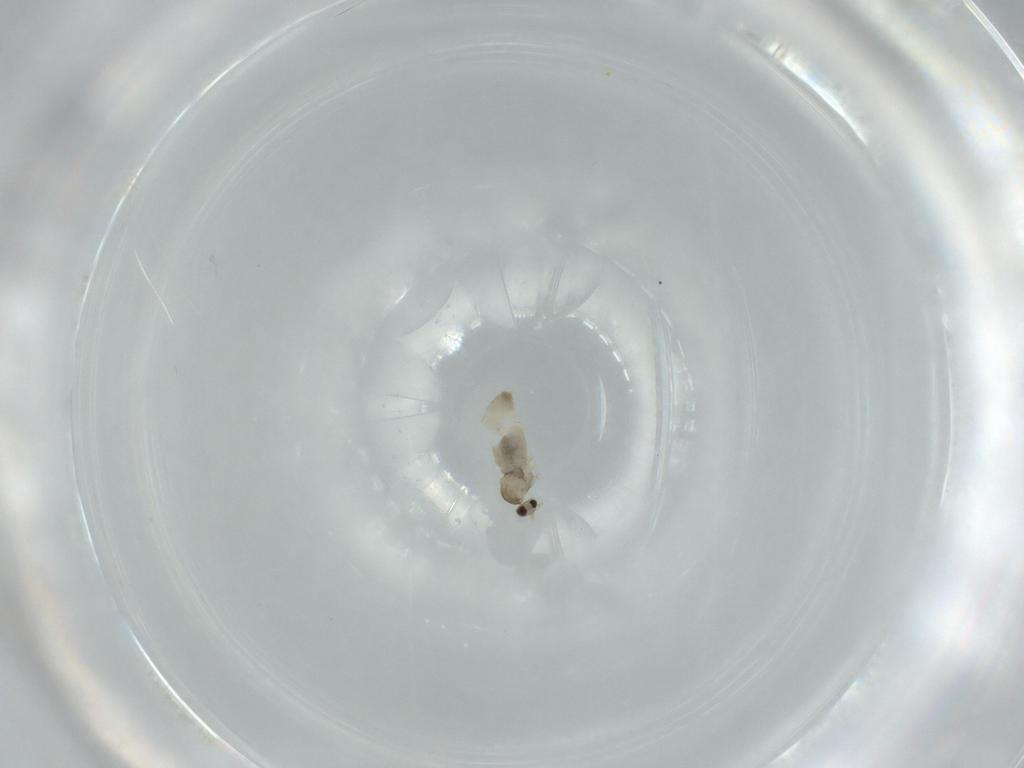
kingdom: Animalia
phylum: Arthropoda
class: Insecta
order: Diptera
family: Cecidomyiidae
